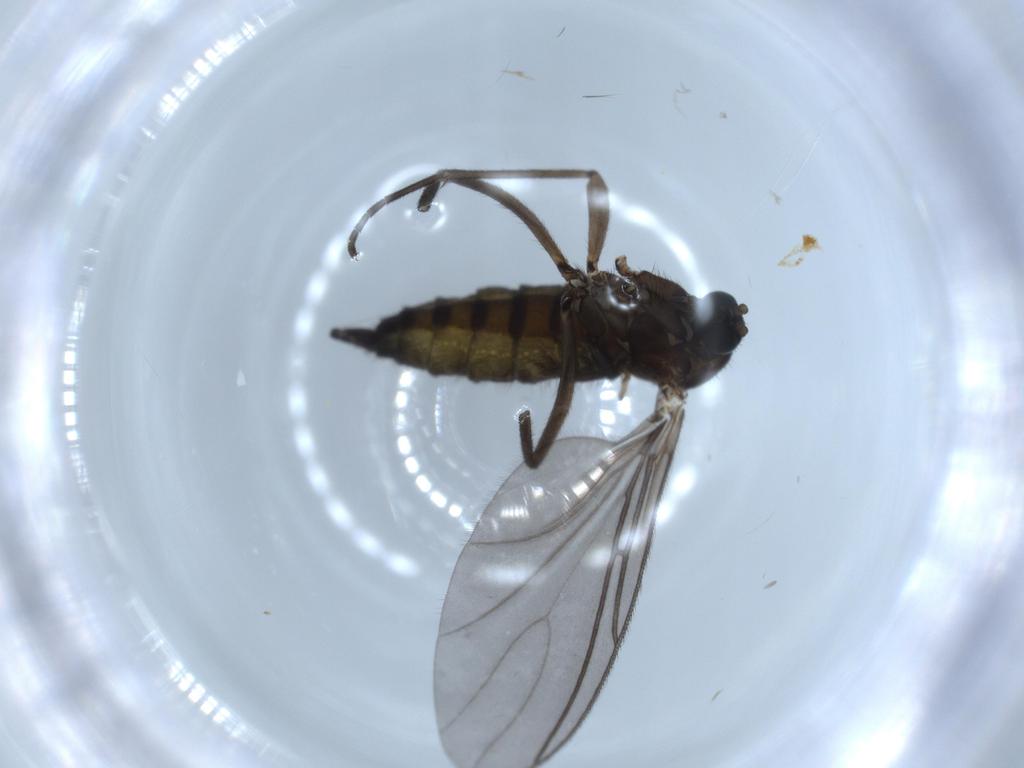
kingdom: Animalia
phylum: Arthropoda
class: Insecta
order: Diptera
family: Sciaridae
